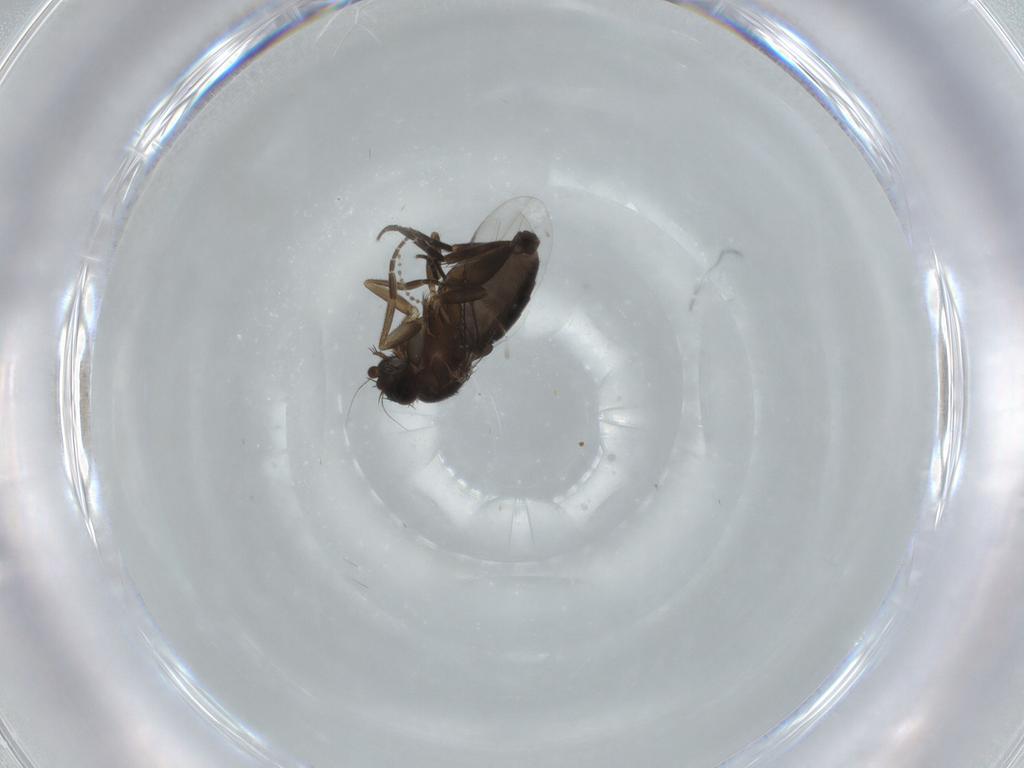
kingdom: Animalia
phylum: Arthropoda
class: Insecta
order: Diptera
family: Phoridae
